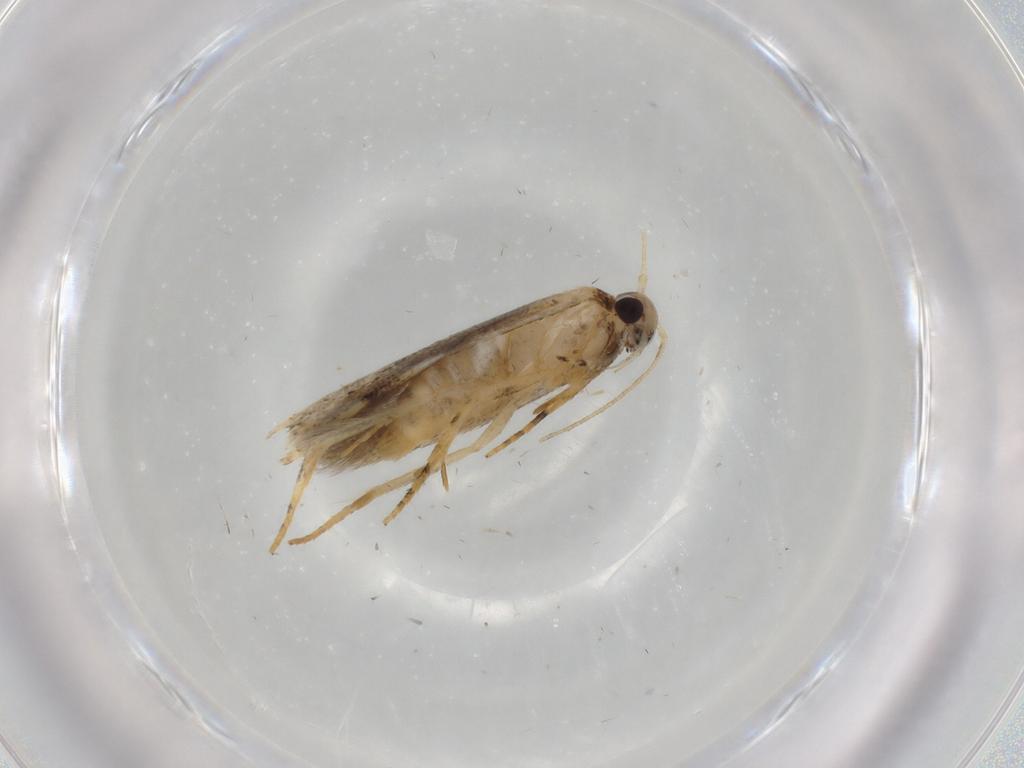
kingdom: Animalia
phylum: Arthropoda
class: Insecta
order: Lepidoptera
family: Gelechiidae
